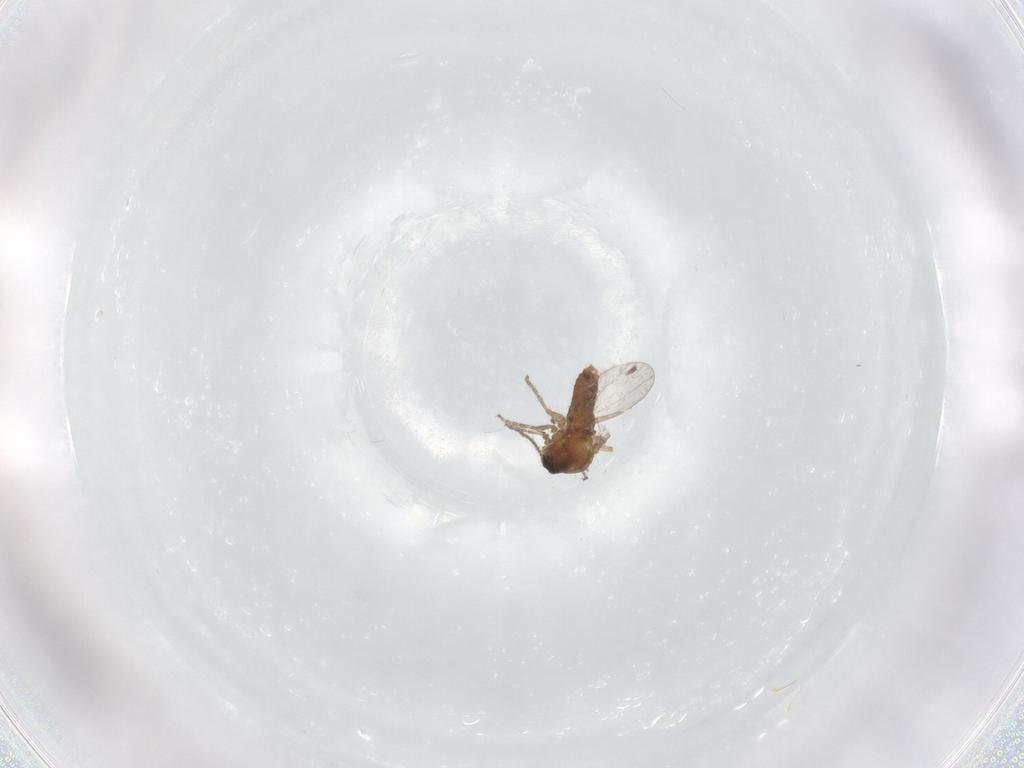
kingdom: Animalia
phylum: Arthropoda
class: Insecta
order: Diptera
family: Ceratopogonidae
